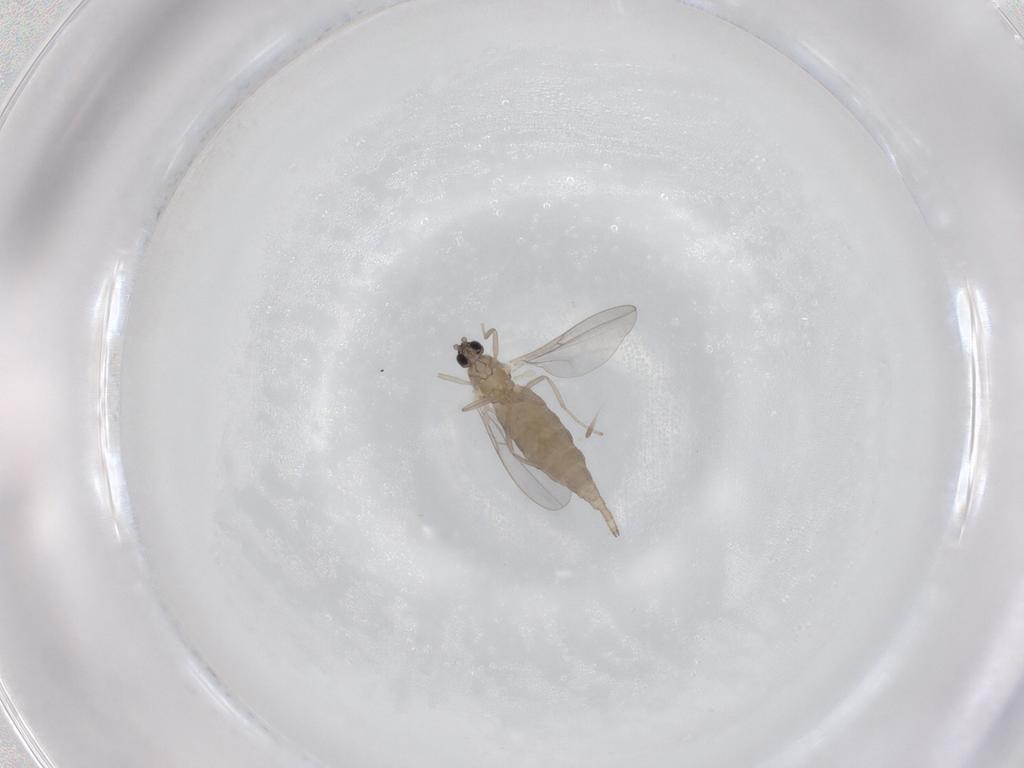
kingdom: Animalia
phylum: Arthropoda
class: Insecta
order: Diptera
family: Cecidomyiidae
